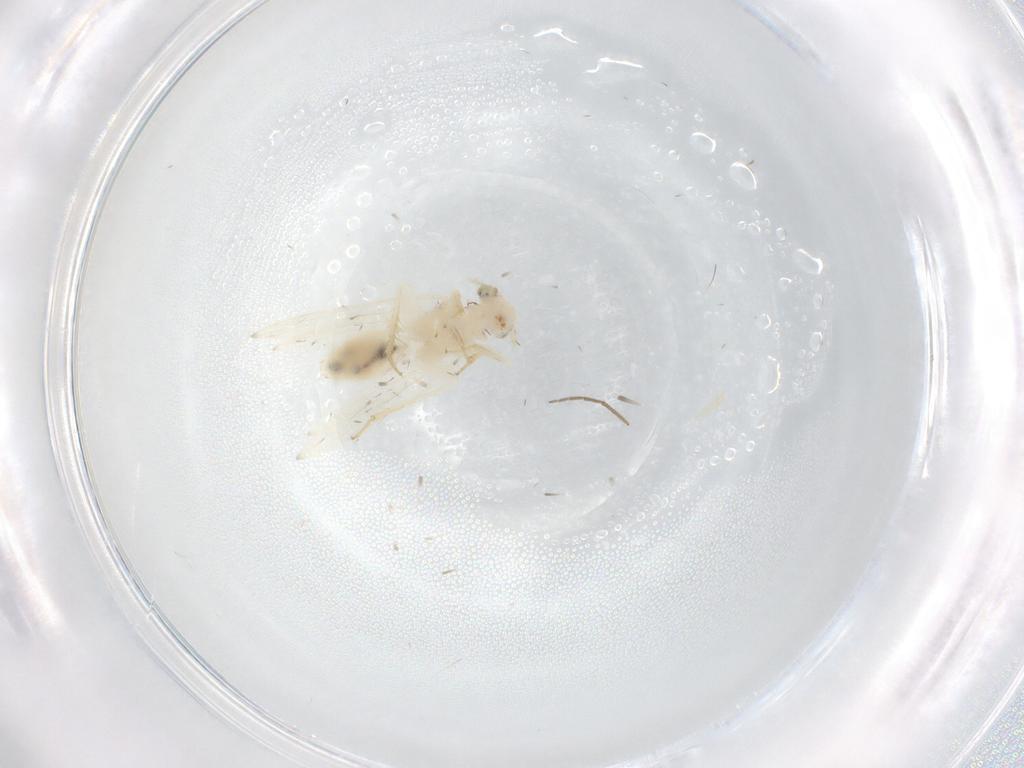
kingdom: Animalia
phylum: Arthropoda
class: Insecta
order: Psocodea
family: Lepidopsocidae
